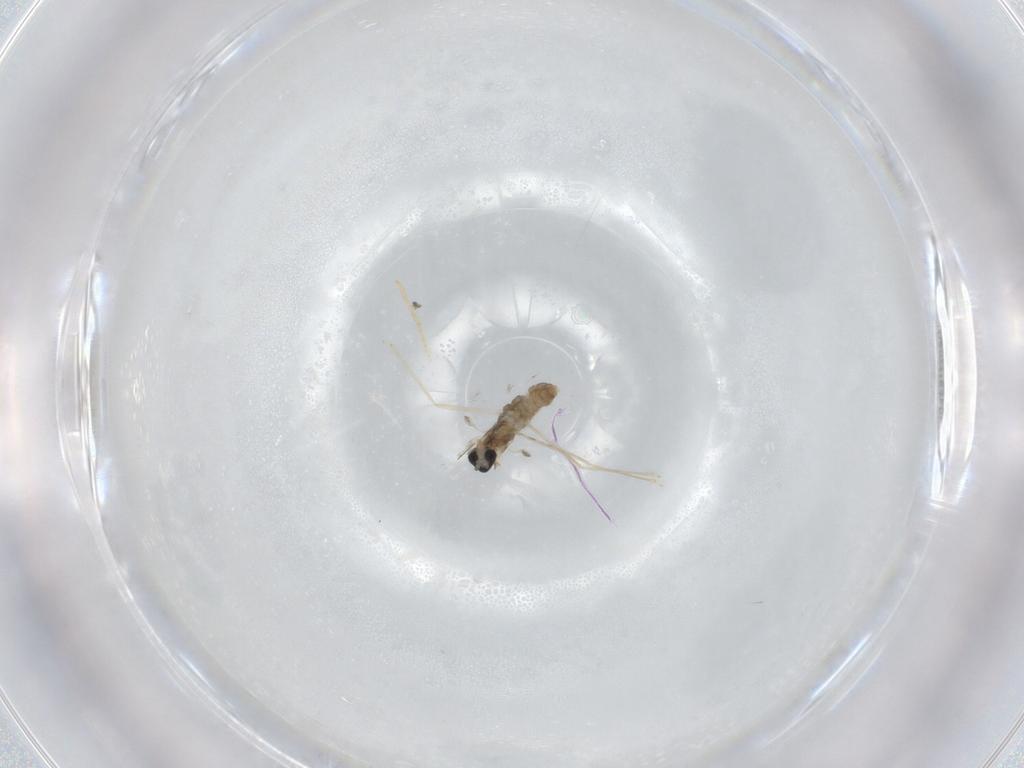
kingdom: Animalia
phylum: Arthropoda
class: Insecta
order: Diptera
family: Cecidomyiidae
